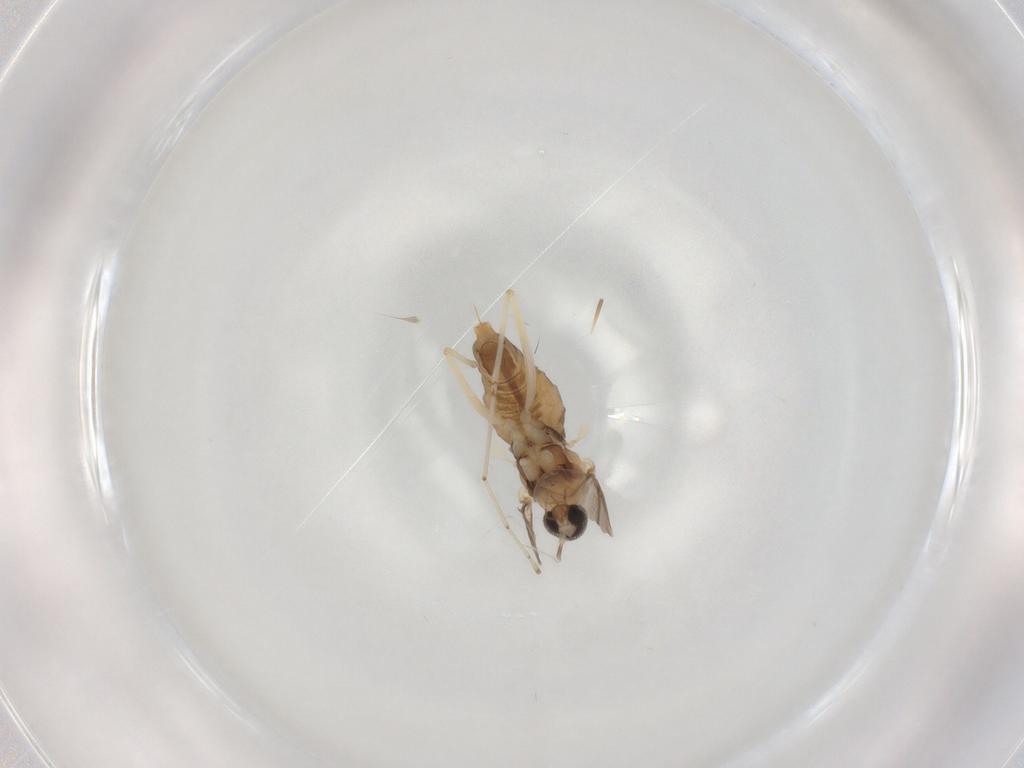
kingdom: Animalia
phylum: Arthropoda
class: Insecta
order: Diptera
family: Cecidomyiidae
